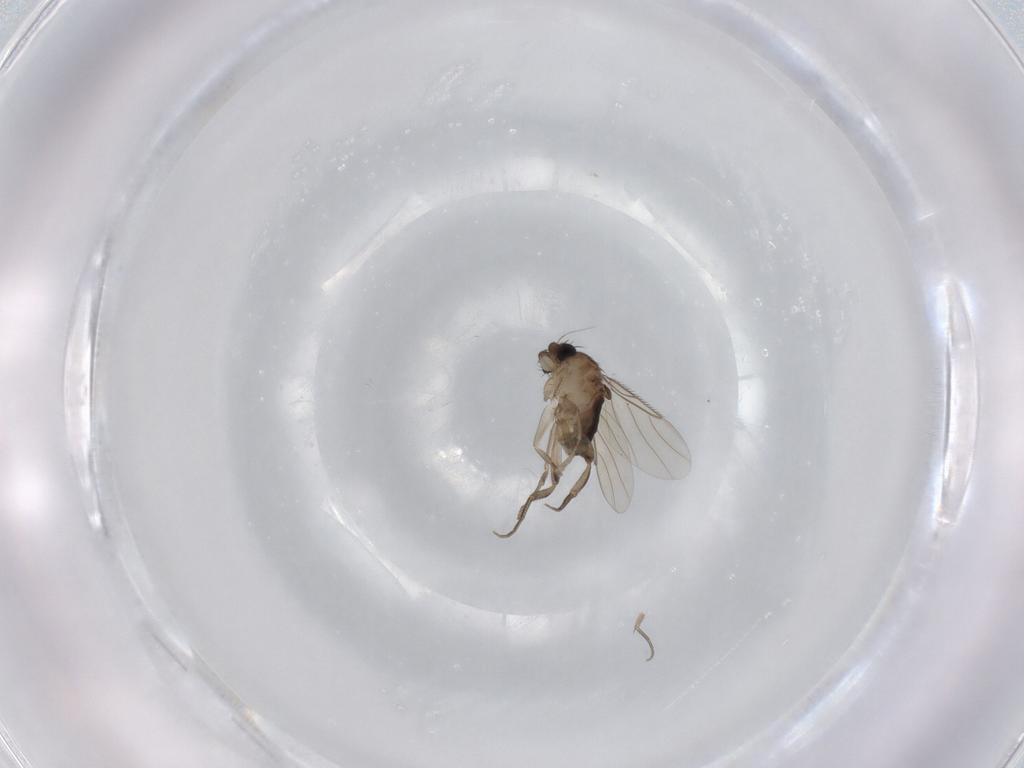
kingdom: Animalia
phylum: Arthropoda
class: Insecta
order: Diptera
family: Phoridae
